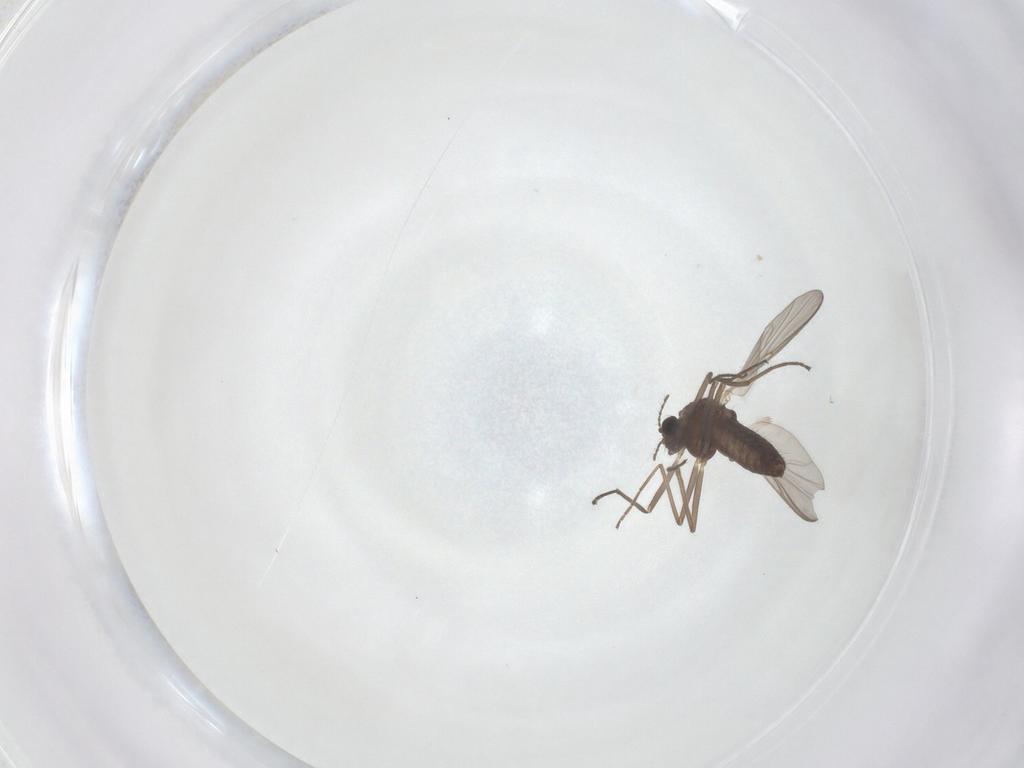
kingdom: Animalia
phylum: Arthropoda
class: Insecta
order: Diptera
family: Chironomidae
